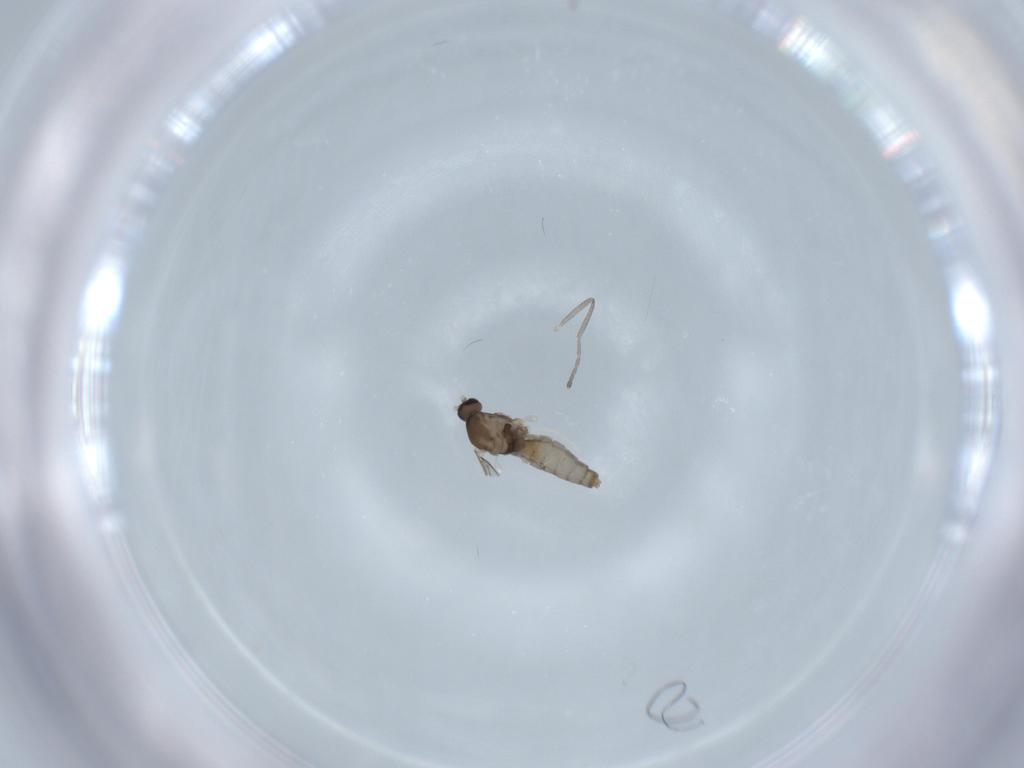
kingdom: Animalia
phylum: Arthropoda
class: Insecta
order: Diptera
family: Cecidomyiidae
